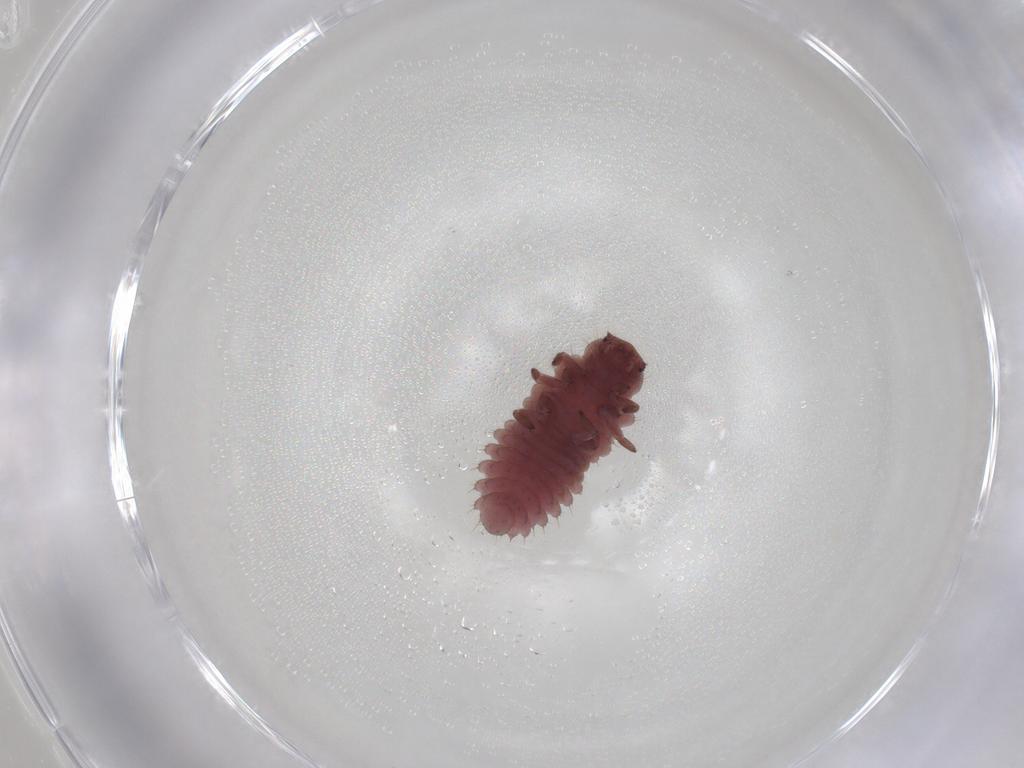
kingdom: Animalia
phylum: Arthropoda
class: Insecta
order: Coleoptera
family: Coccinellidae
